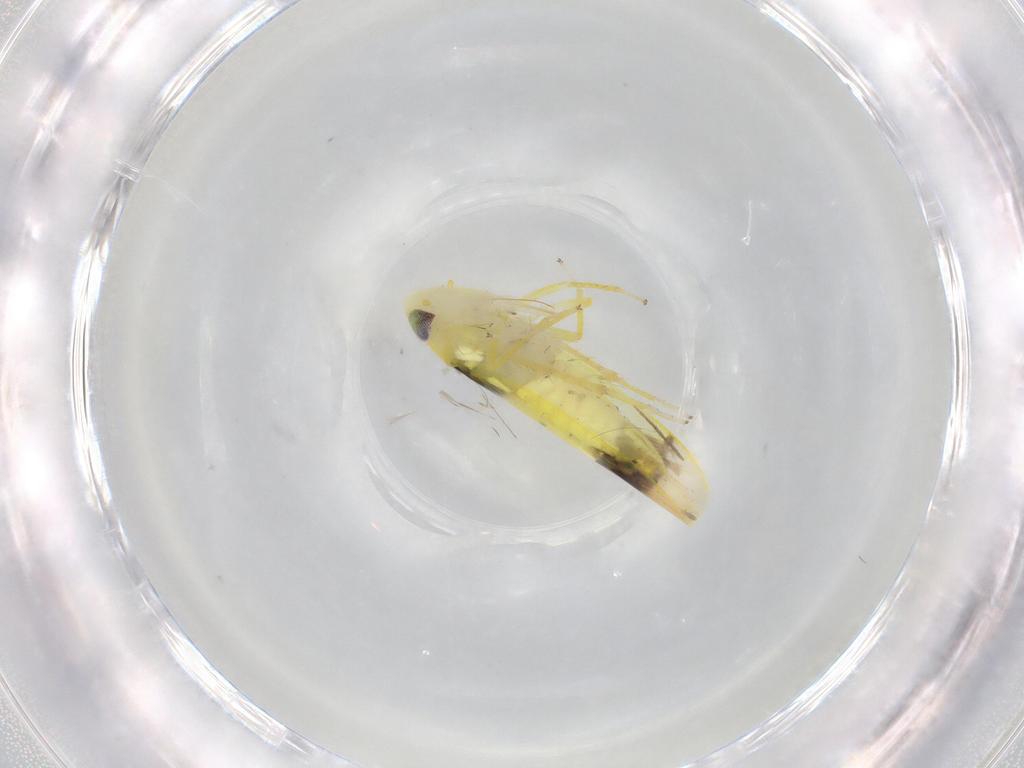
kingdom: Animalia
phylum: Arthropoda
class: Insecta
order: Hemiptera
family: Cicadellidae
